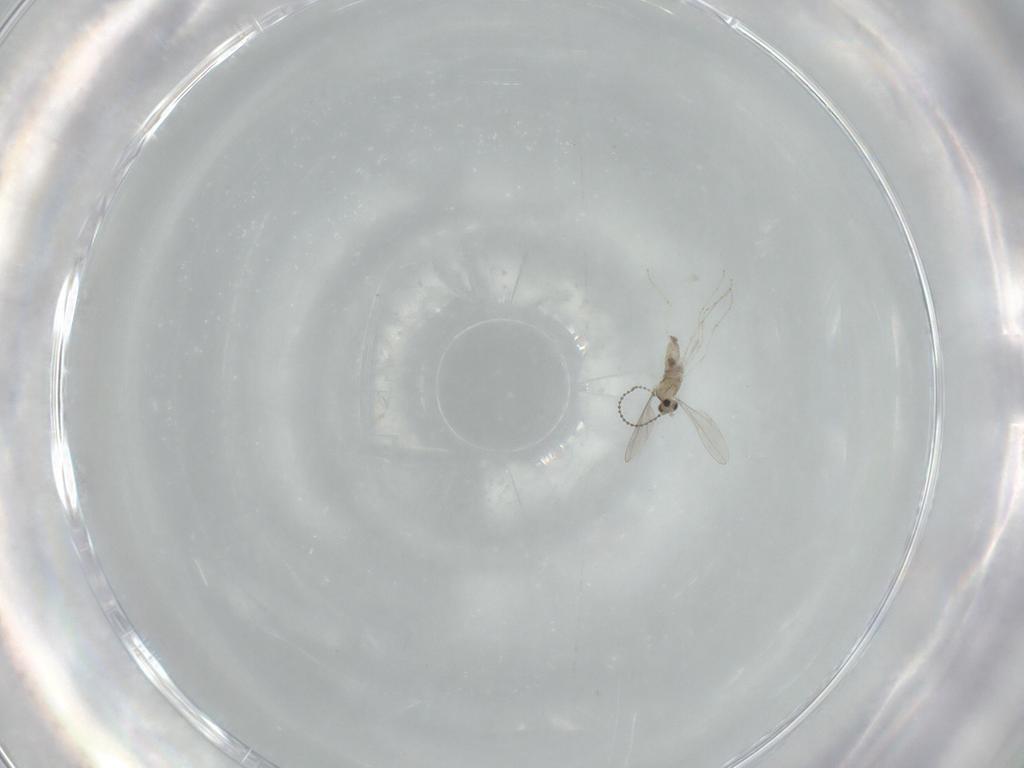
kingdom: Animalia
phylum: Arthropoda
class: Insecta
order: Diptera
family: Cecidomyiidae
